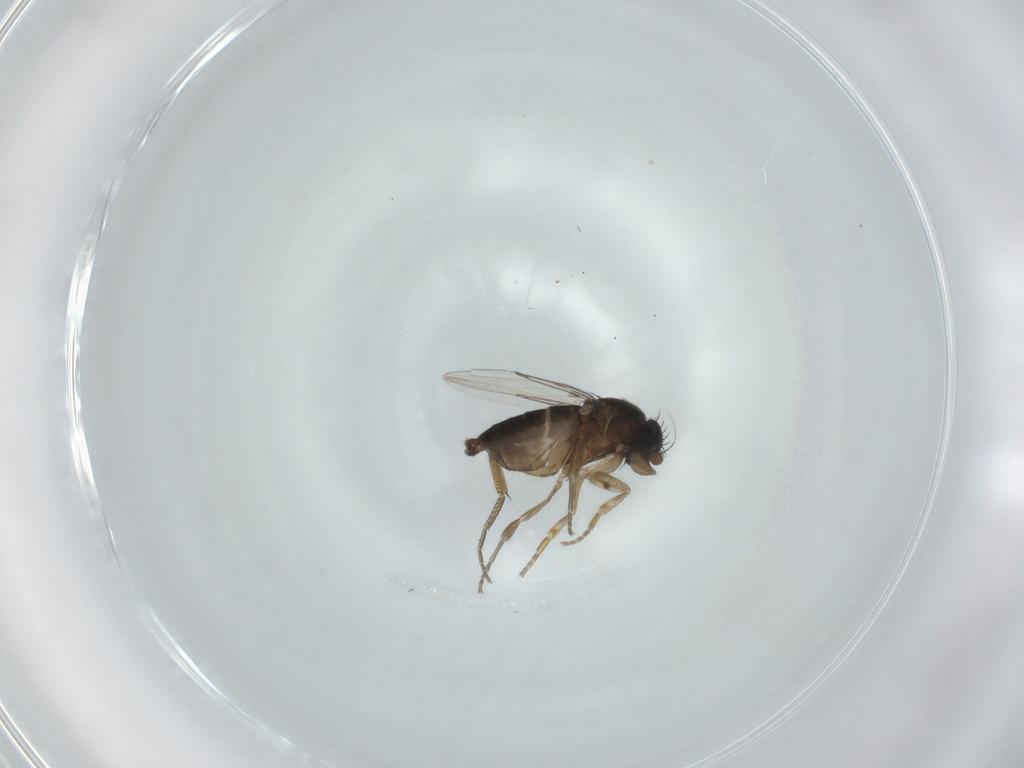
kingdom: Animalia
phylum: Arthropoda
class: Insecta
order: Diptera
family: Phoridae
